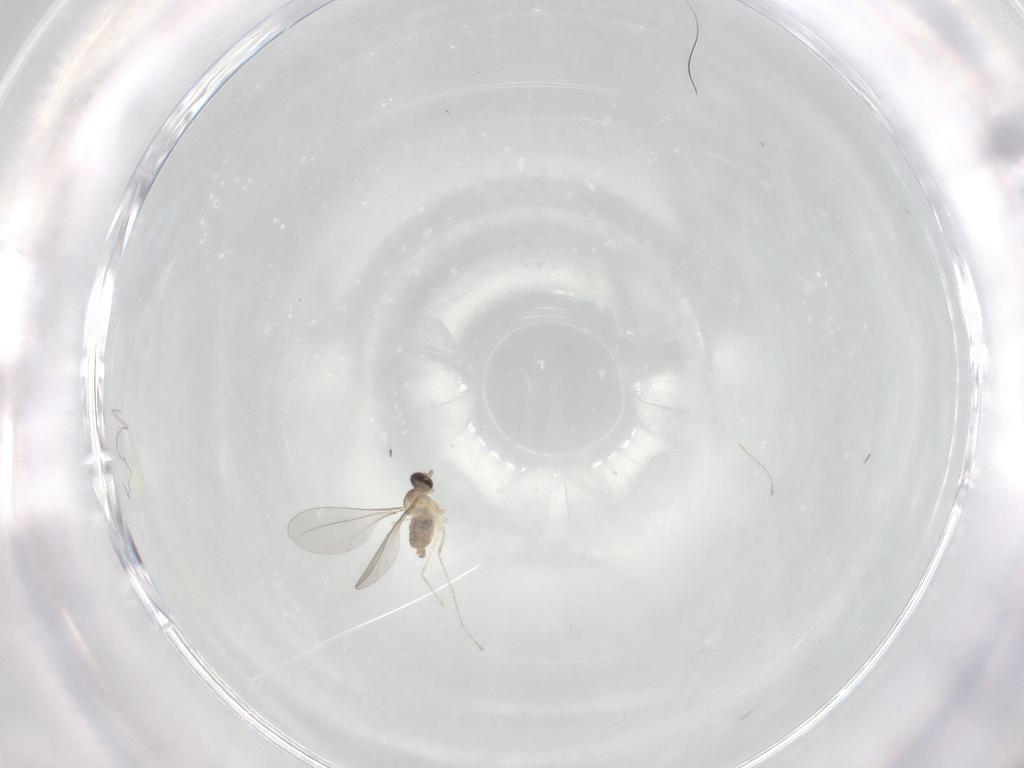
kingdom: Animalia
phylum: Arthropoda
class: Insecta
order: Diptera
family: Cecidomyiidae
